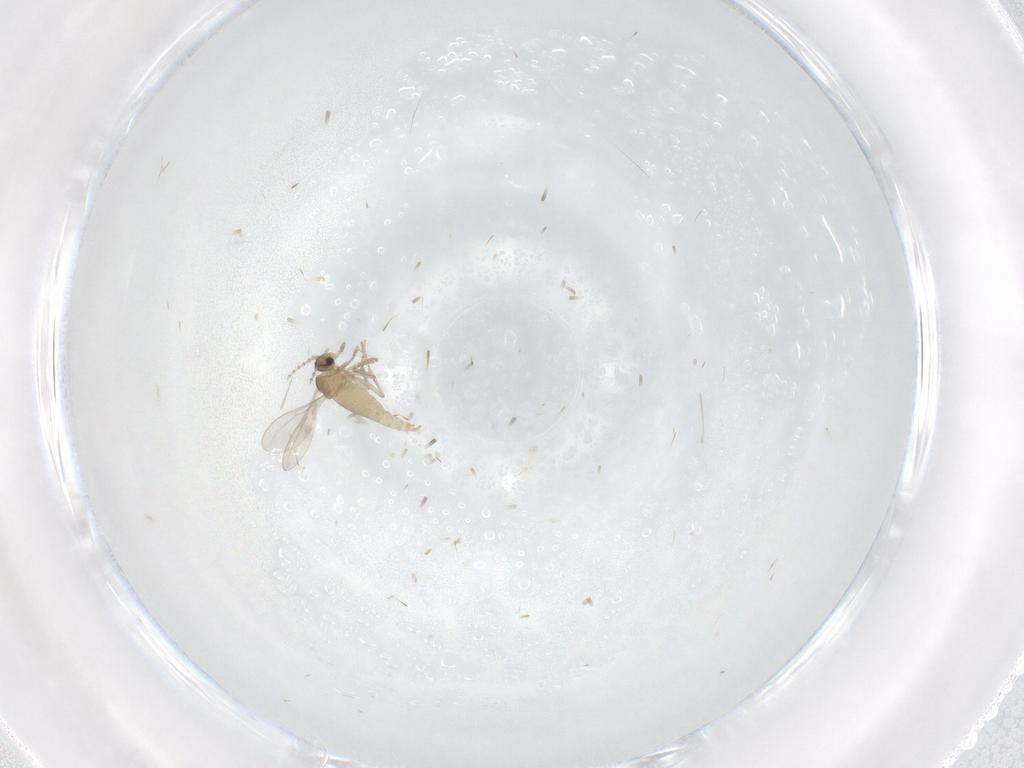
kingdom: Animalia
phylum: Arthropoda
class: Insecta
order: Diptera
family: Cecidomyiidae
